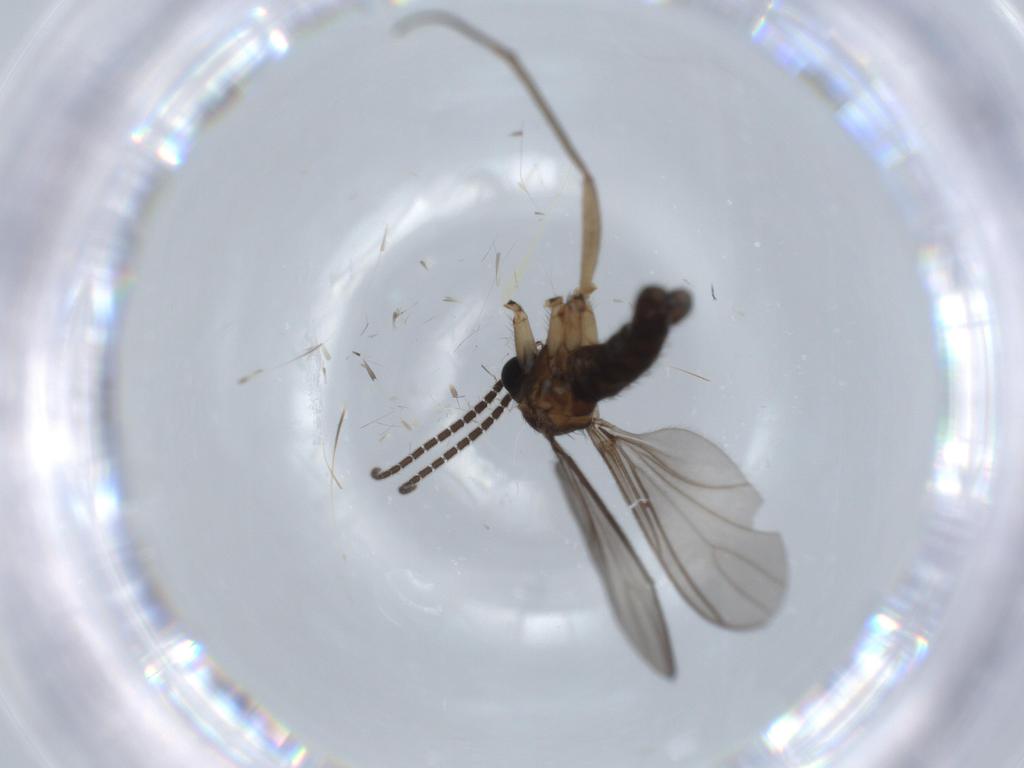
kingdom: Animalia
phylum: Arthropoda
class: Insecta
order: Diptera
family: Sciaridae
